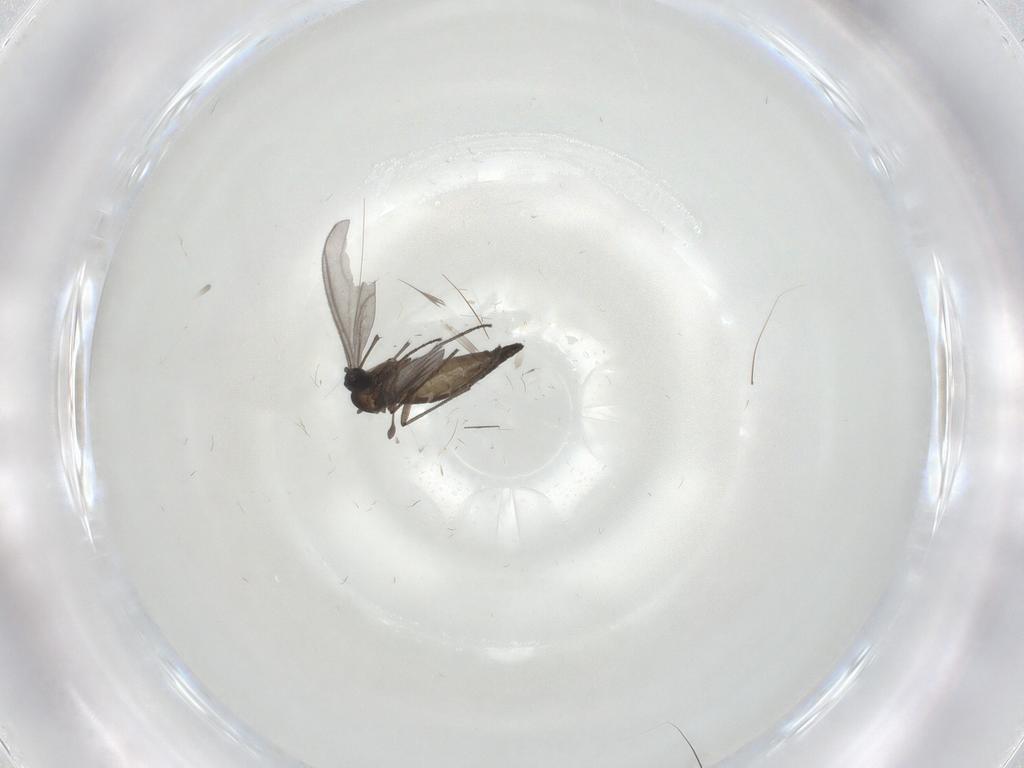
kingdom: Animalia
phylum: Arthropoda
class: Insecta
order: Diptera
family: Sciaridae
